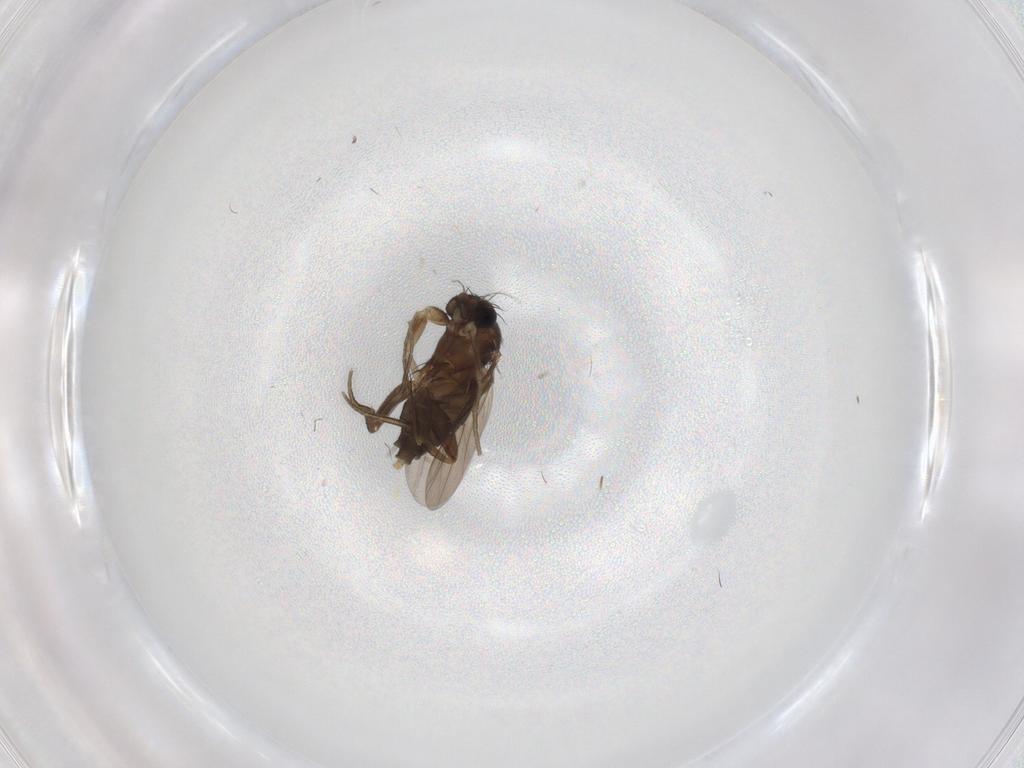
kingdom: Animalia
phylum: Arthropoda
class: Insecta
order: Diptera
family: Phoridae
